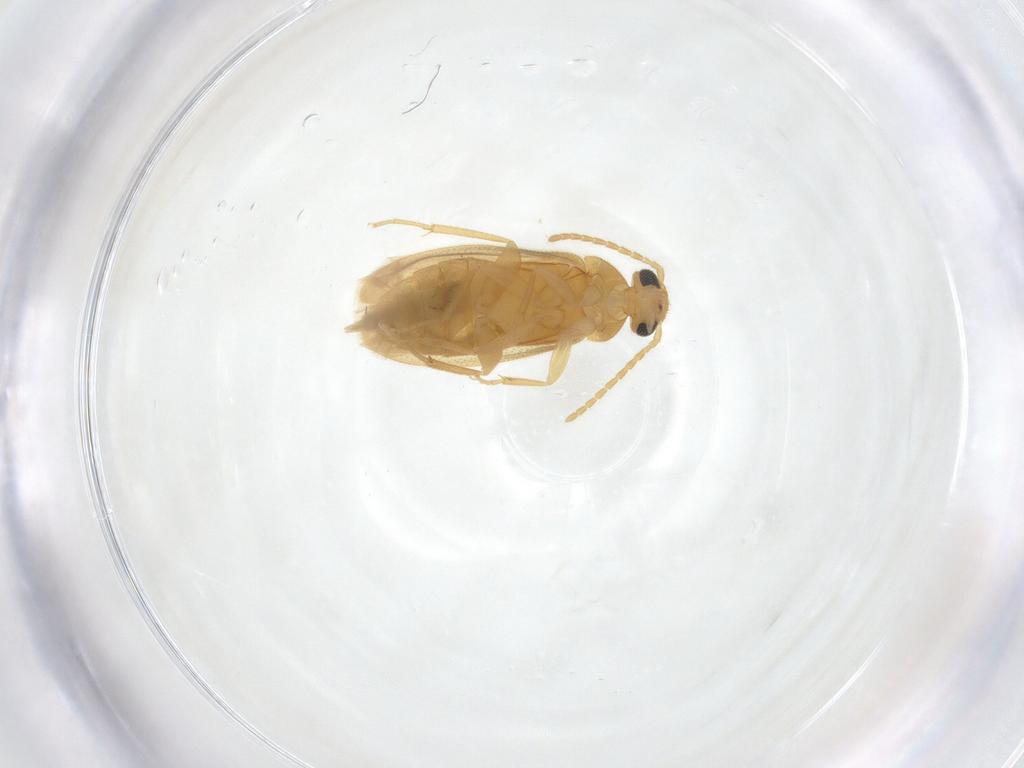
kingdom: Animalia
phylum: Arthropoda
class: Insecta
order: Coleoptera
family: Scraptiidae
